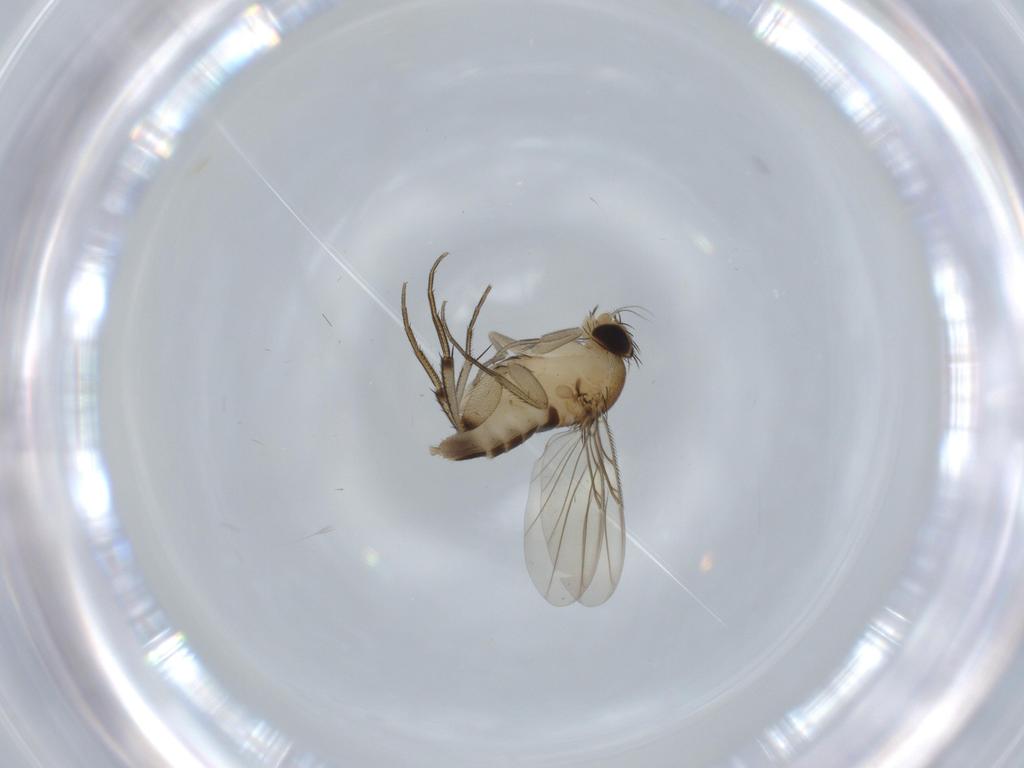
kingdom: Animalia
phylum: Arthropoda
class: Insecta
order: Diptera
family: Phoridae
